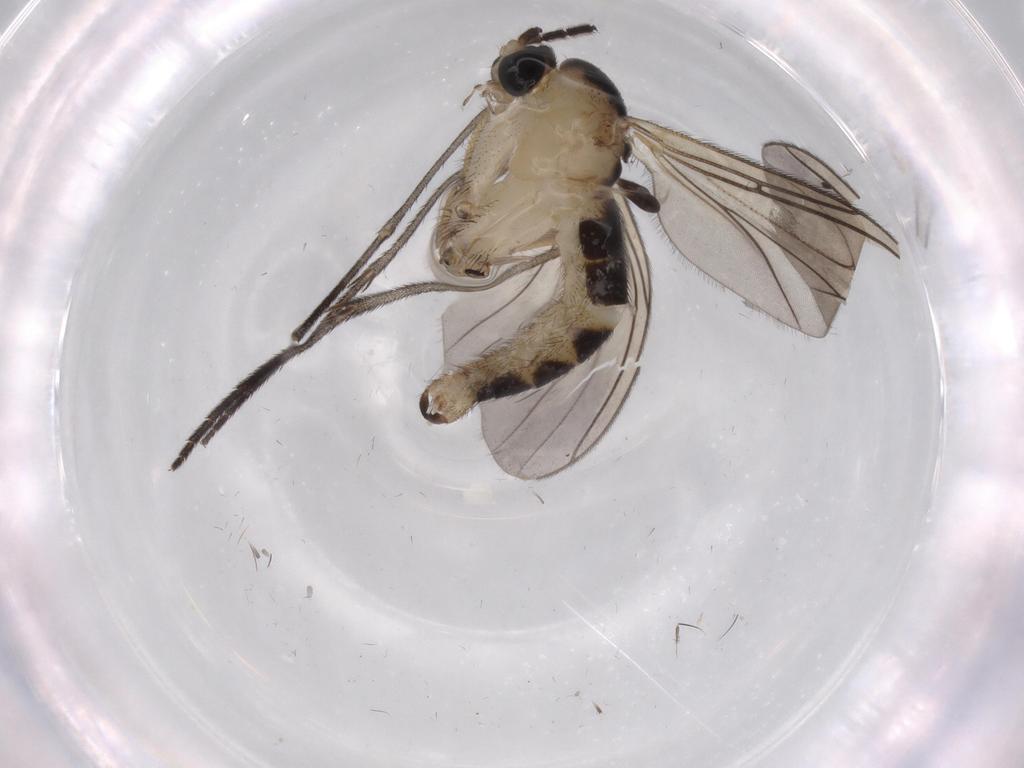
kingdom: Animalia
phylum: Arthropoda
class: Insecta
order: Diptera
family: Sciaridae
